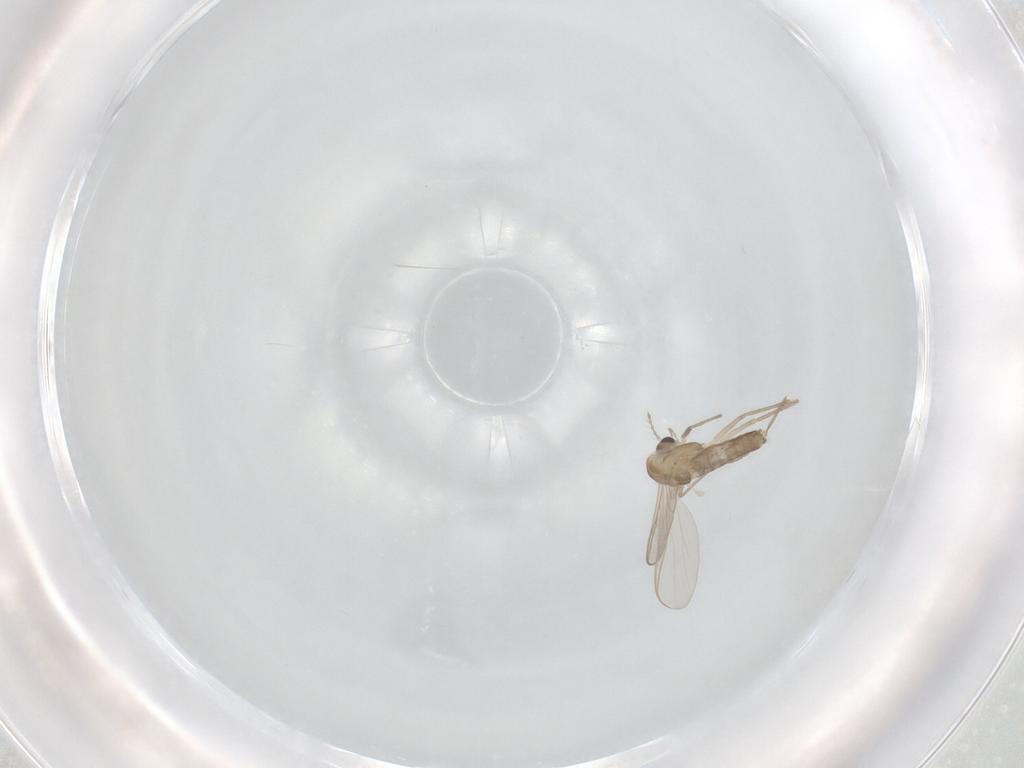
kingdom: Animalia
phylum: Arthropoda
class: Insecta
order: Diptera
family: Chironomidae
